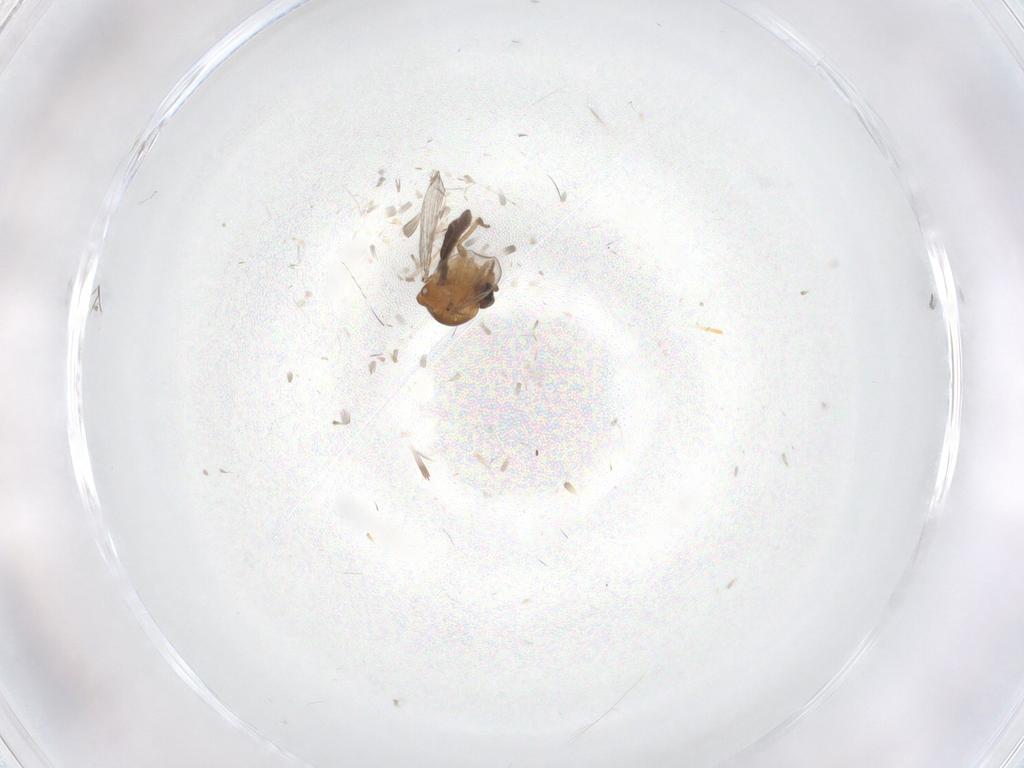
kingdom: Animalia
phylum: Arthropoda
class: Insecta
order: Diptera
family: Ceratopogonidae
